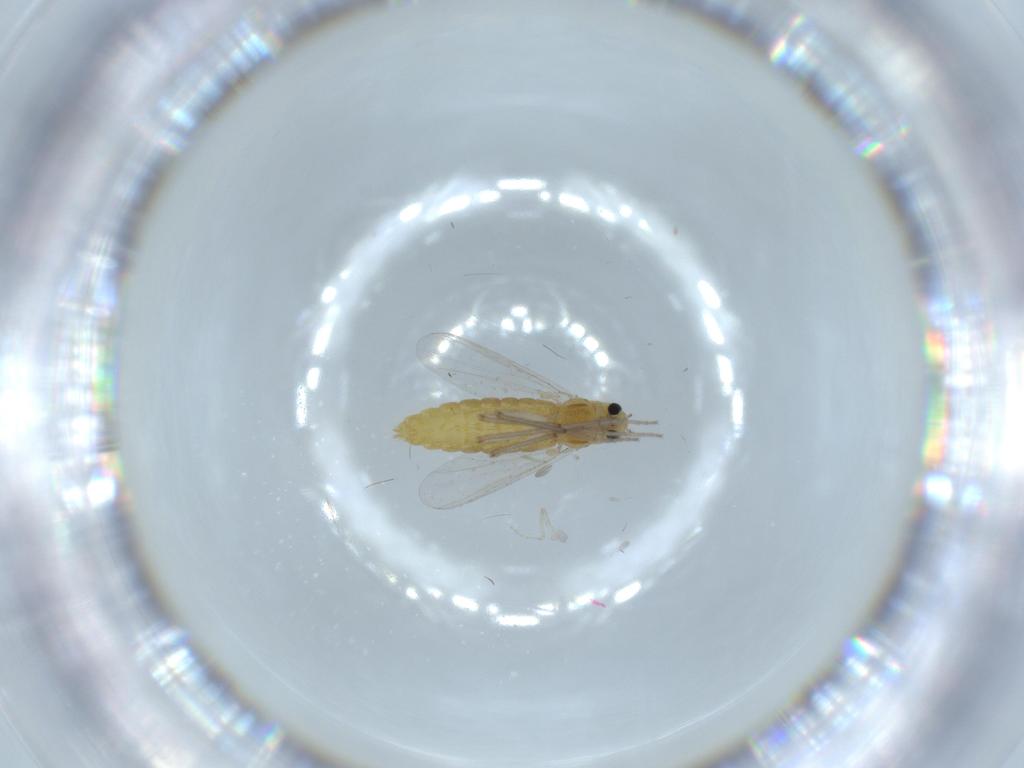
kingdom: Animalia
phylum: Arthropoda
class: Insecta
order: Diptera
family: Chironomidae
